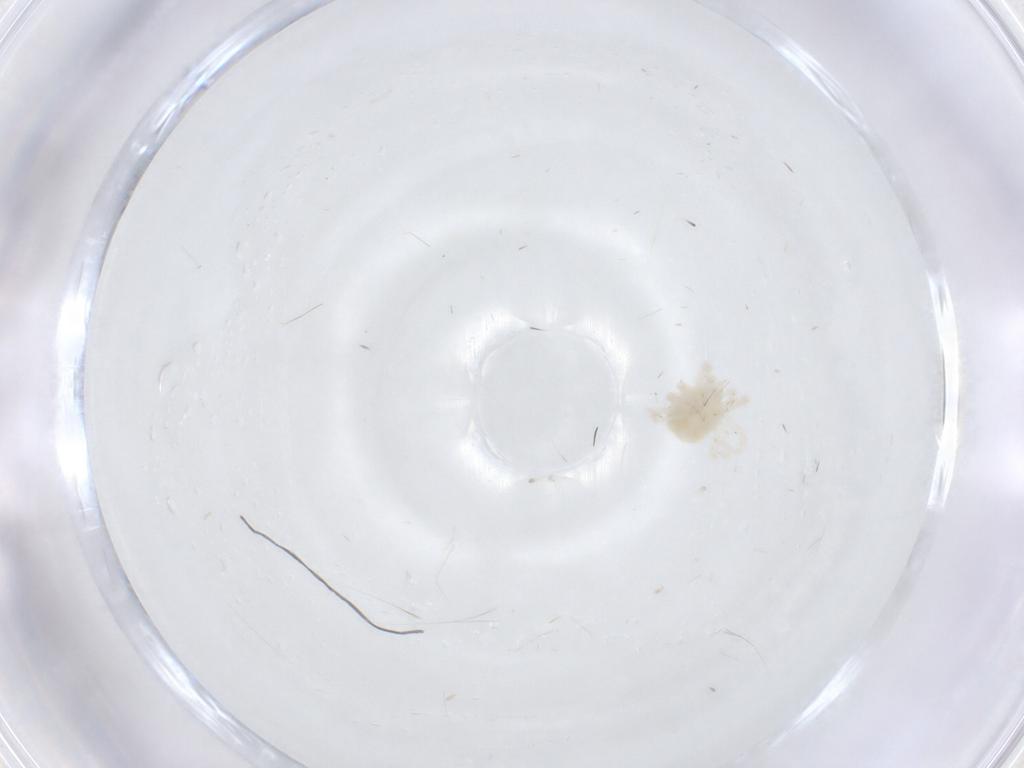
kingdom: Animalia
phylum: Arthropoda
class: Arachnida
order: Trombidiformes
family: Anystidae
